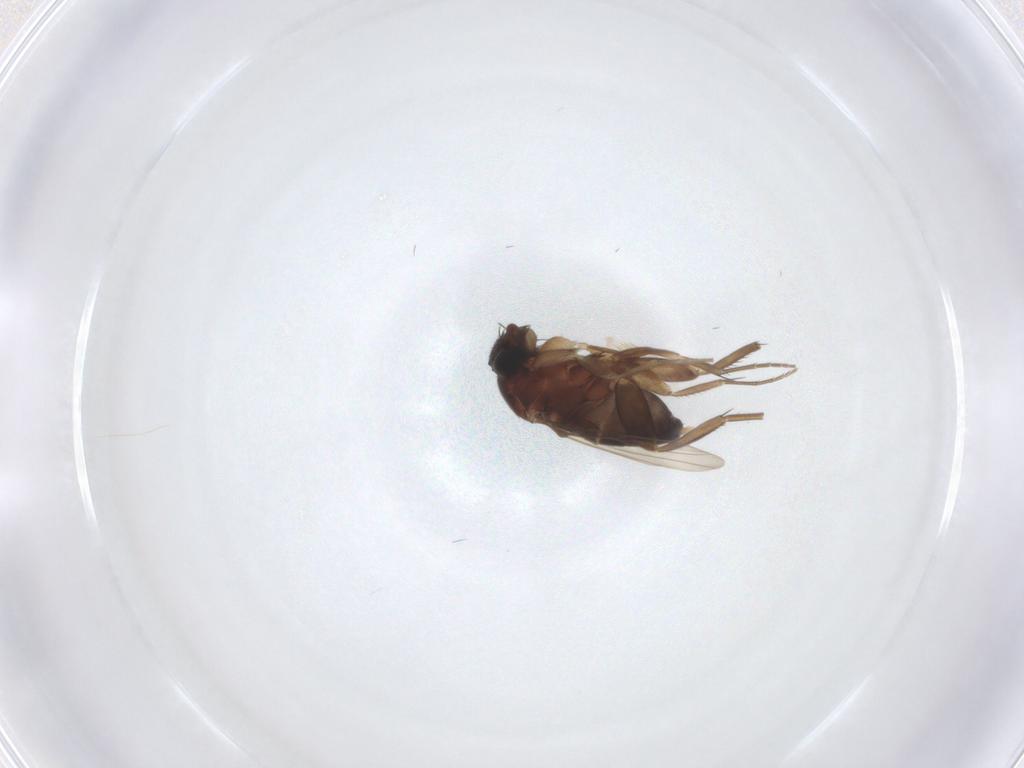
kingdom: Animalia
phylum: Arthropoda
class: Insecta
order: Diptera
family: Phoridae
